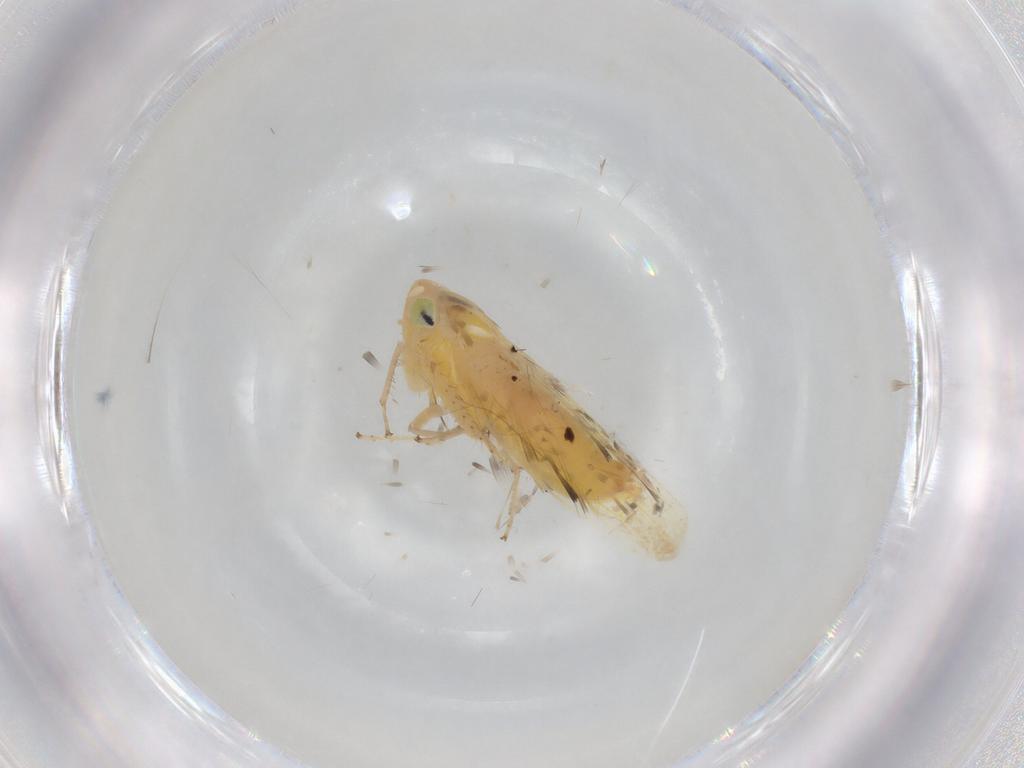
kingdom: Animalia
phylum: Arthropoda
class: Insecta
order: Hemiptera
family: Cicadellidae
